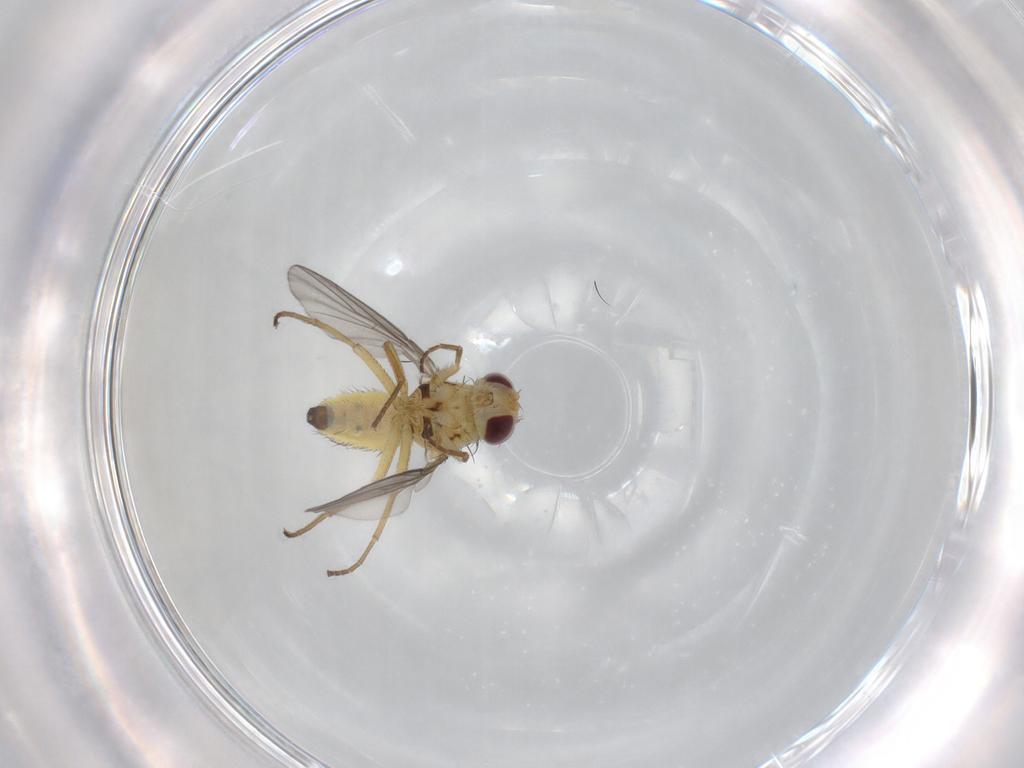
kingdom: Animalia
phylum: Arthropoda
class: Insecta
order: Diptera
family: Agromyzidae
